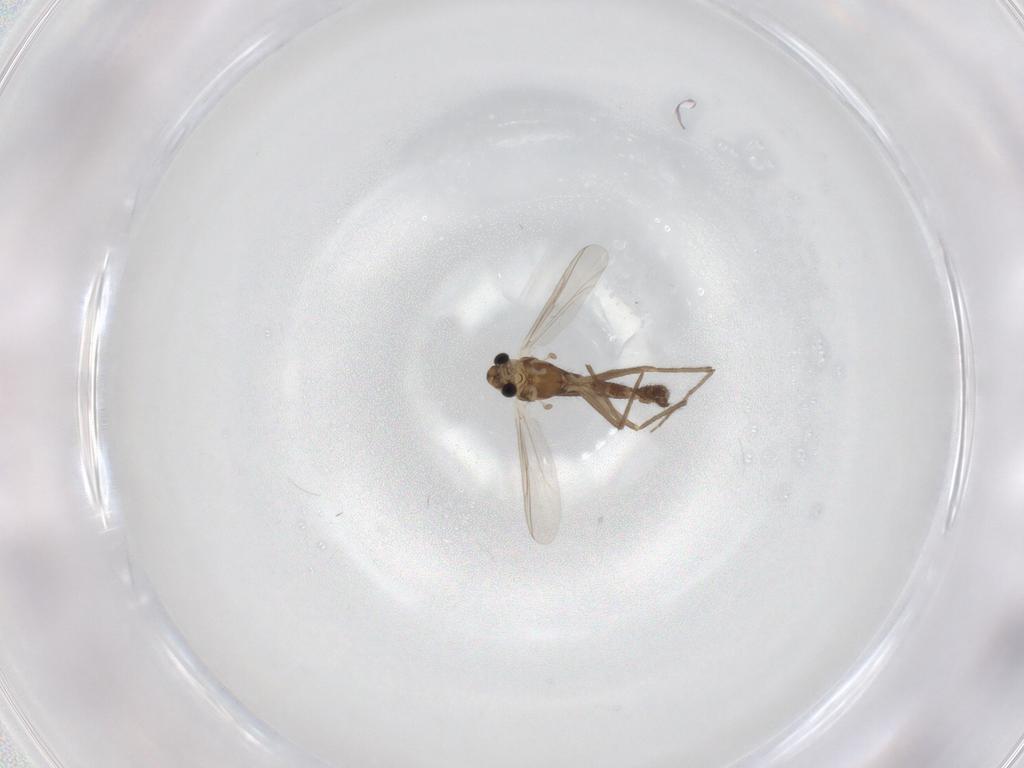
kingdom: Animalia
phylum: Arthropoda
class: Insecta
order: Diptera
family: Chironomidae
